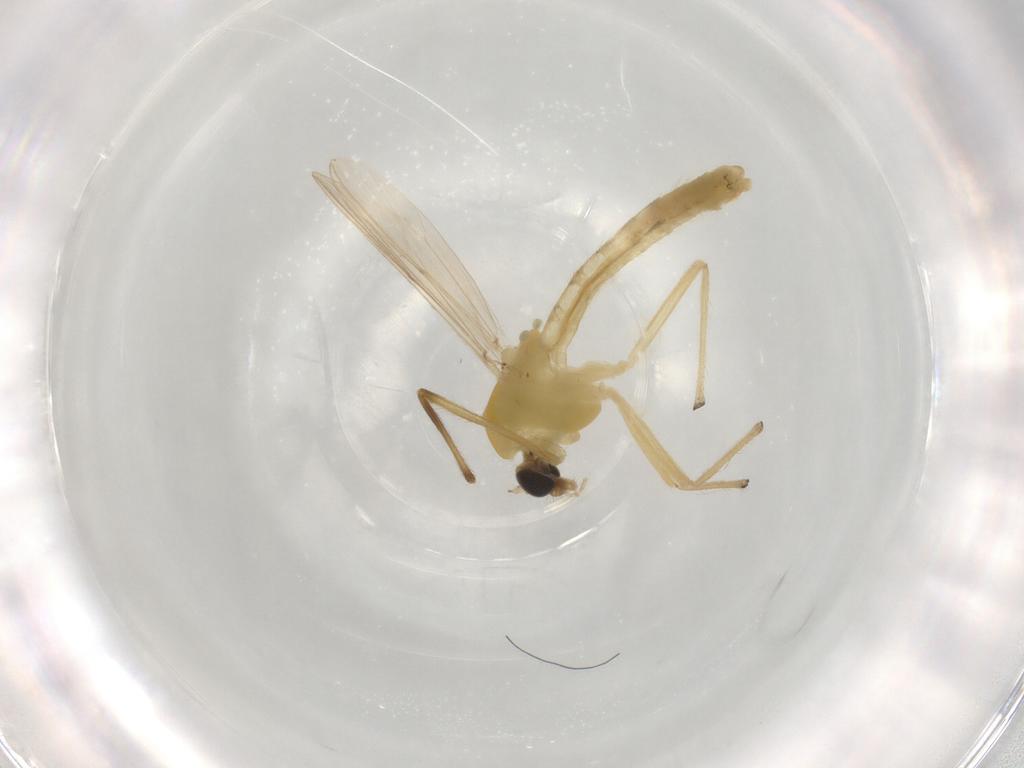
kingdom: Animalia
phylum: Arthropoda
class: Insecta
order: Diptera
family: Chironomidae
